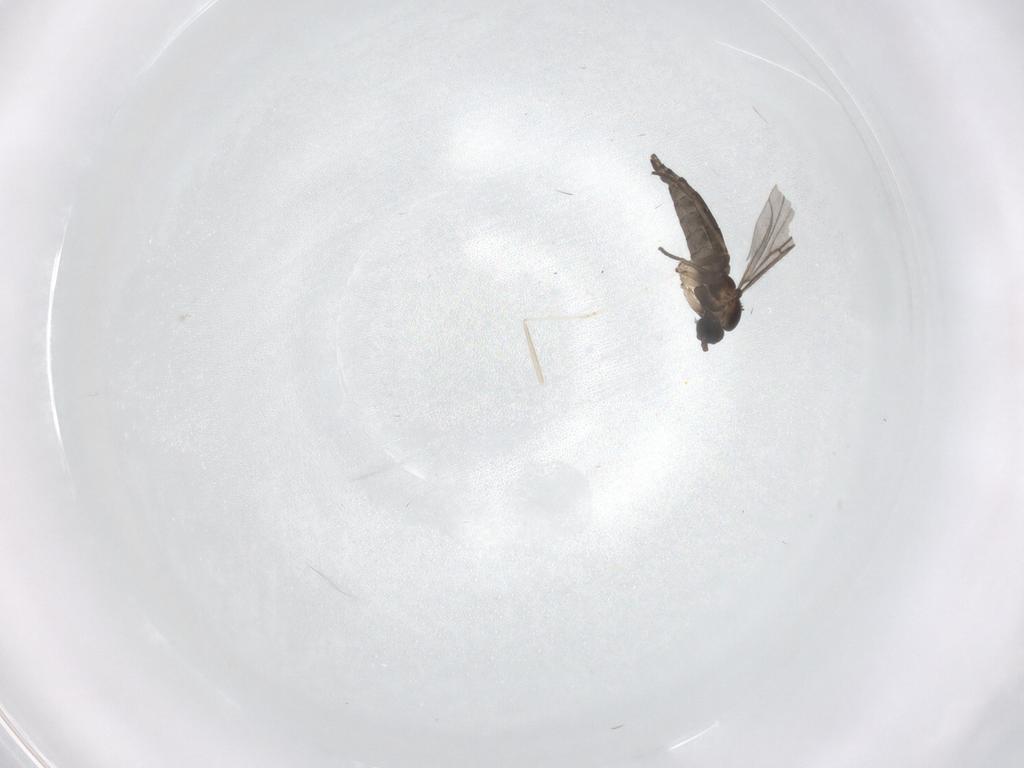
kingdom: Animalia
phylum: Arthropoda
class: Insecta
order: Diptera
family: Sciaridae
